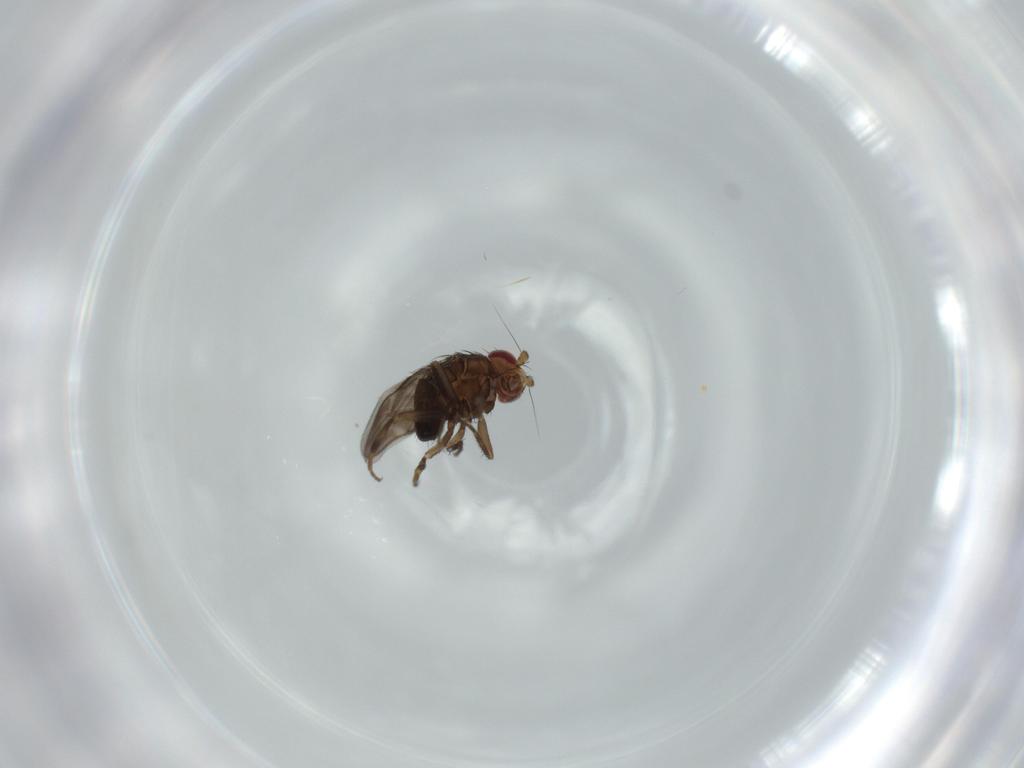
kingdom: Animalia
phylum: Arthropoda
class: Insecta
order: Diptera
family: Sphaeroceridae
